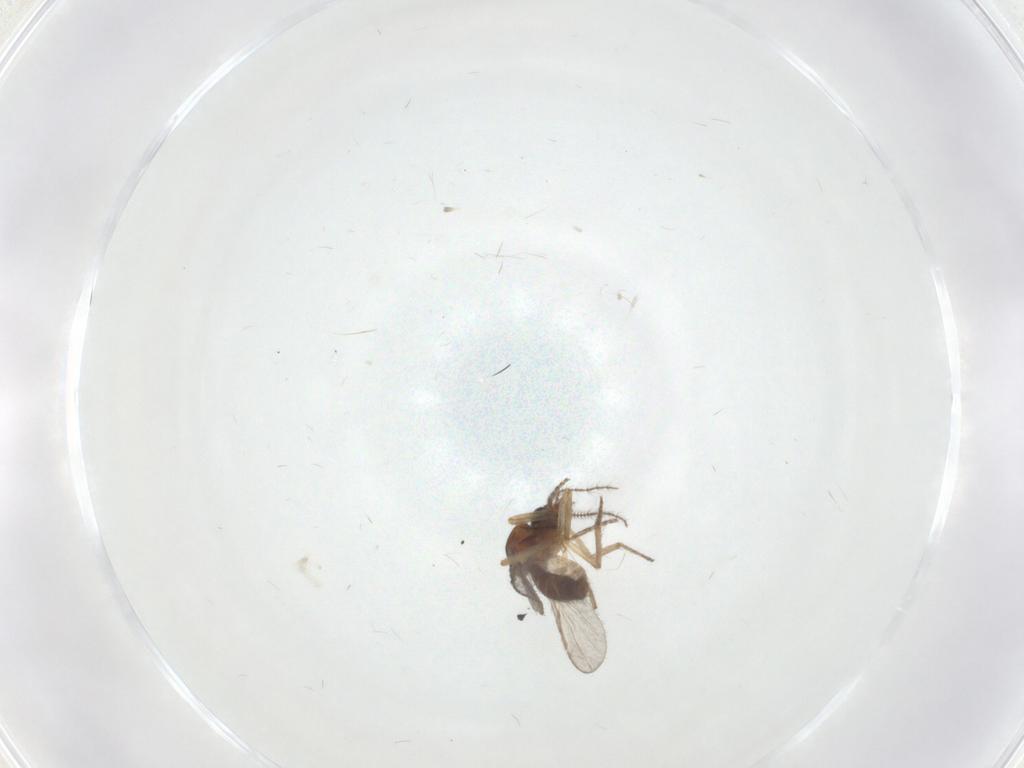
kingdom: Animalia
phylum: Arthropoda
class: Insecta
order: Diptera
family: Ceratopogonidae
